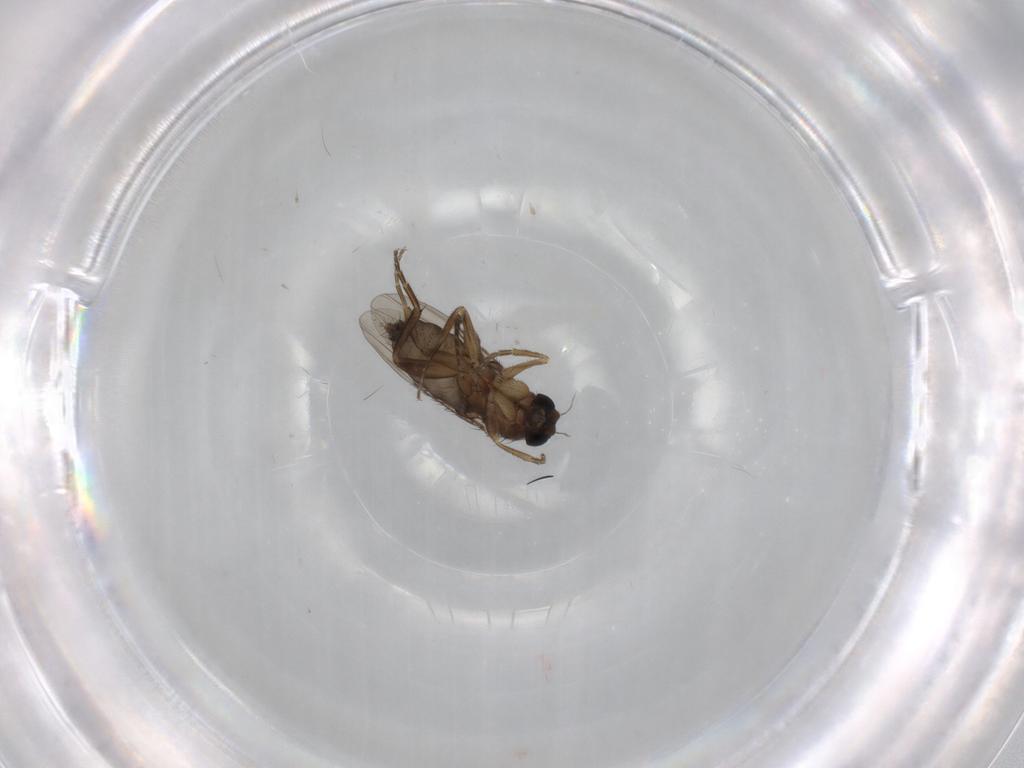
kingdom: Animalia
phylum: Arthropoda
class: Insecta
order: Diptera
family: Phoridae
